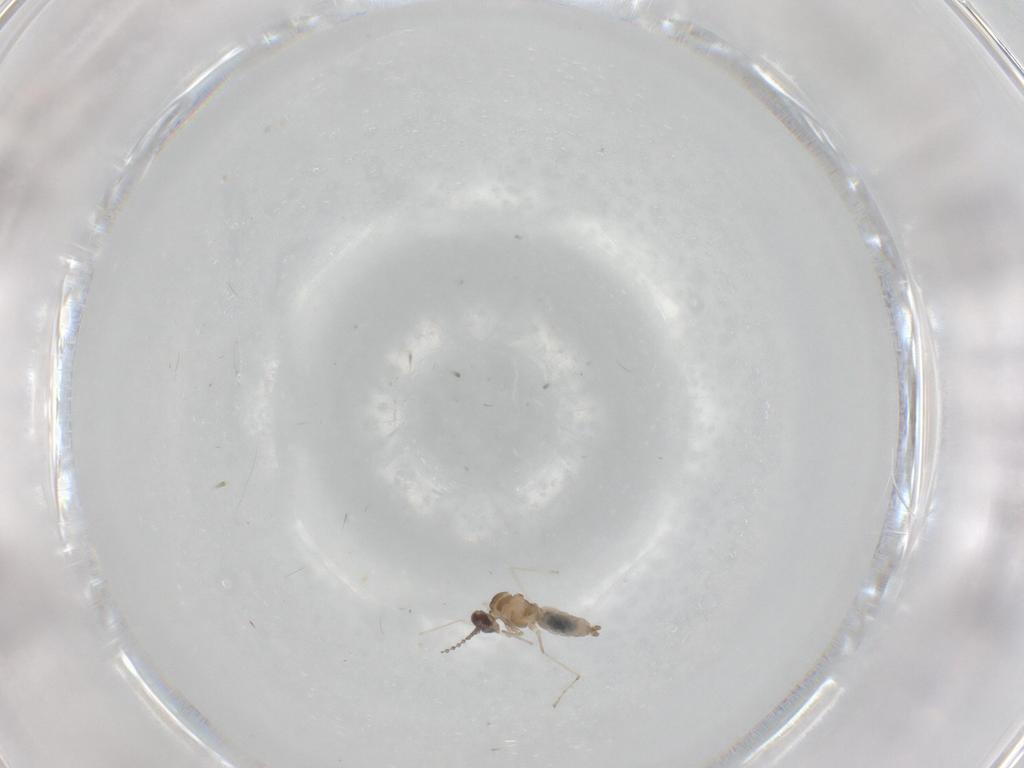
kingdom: Animalia
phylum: Arthropoda
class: Insecta
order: Diptera
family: Cecidomyiidae
